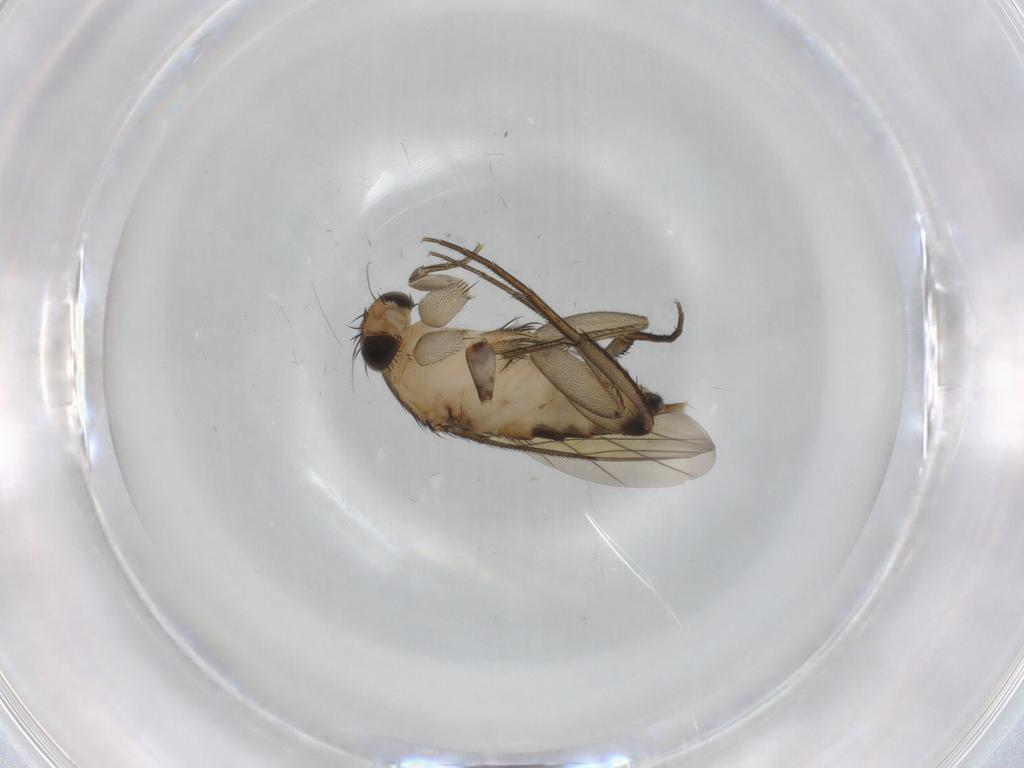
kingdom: Animalia
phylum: Arthropoda
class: Insecta
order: Diptera
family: Phoridae
